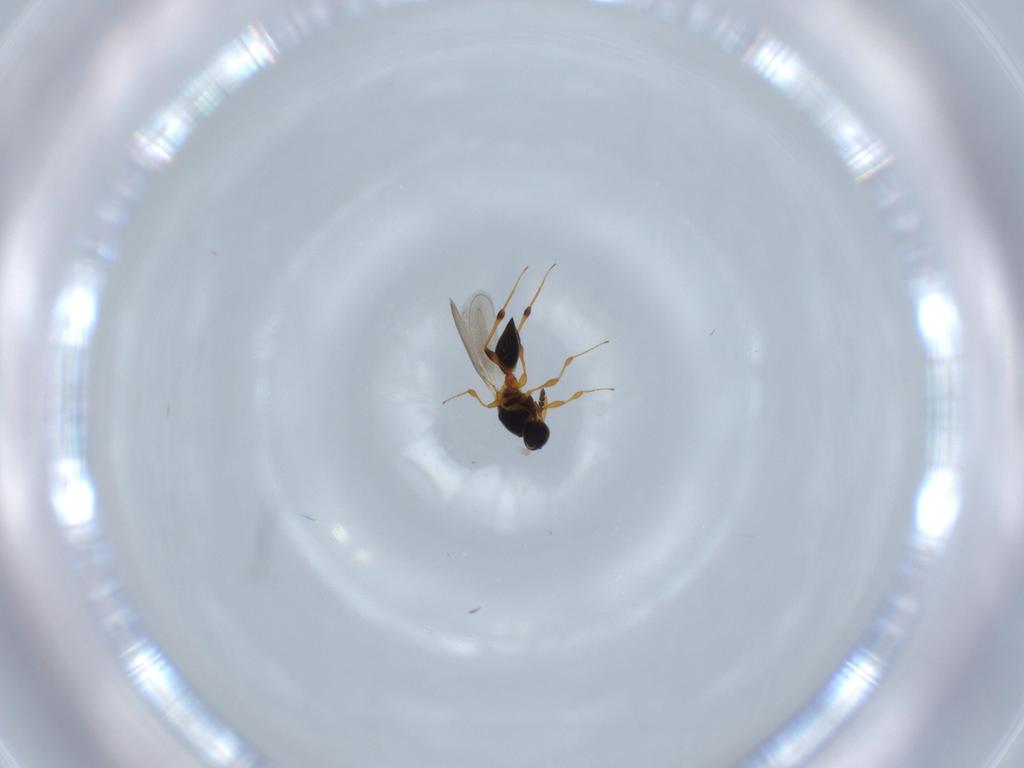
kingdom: Animalia
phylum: Arthropoda
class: Insecta
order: Hymenoptera
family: Platygastridae
